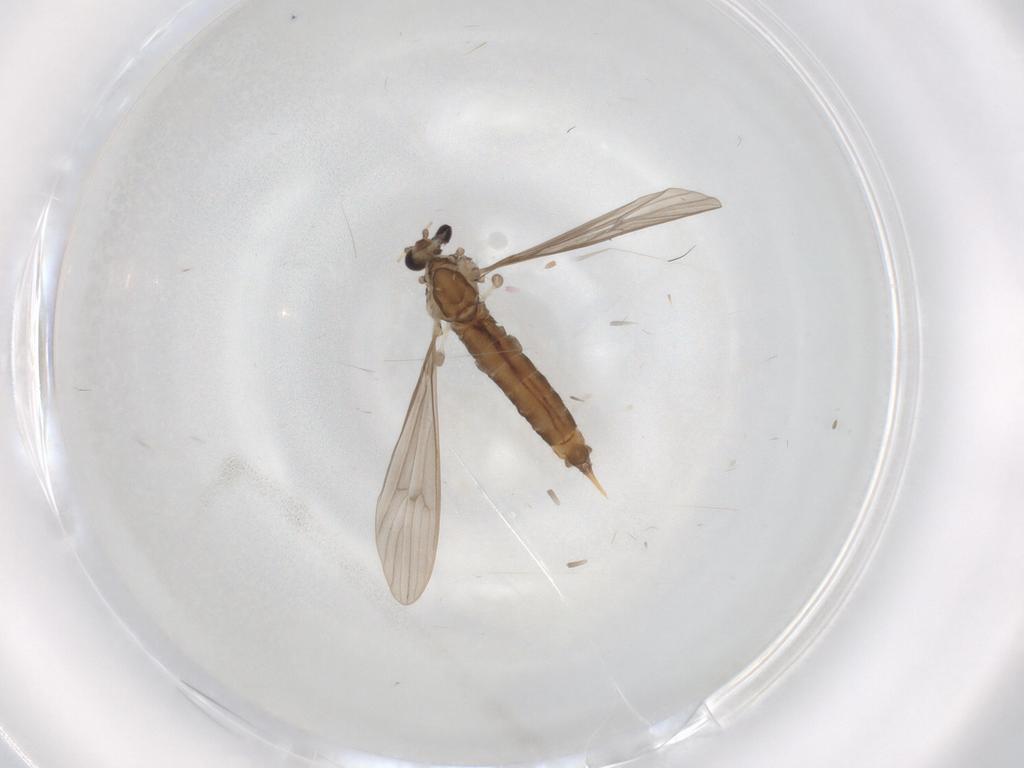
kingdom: Animalia
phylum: Arthropoda
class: Insecta
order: Diptera
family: Limoniidae
